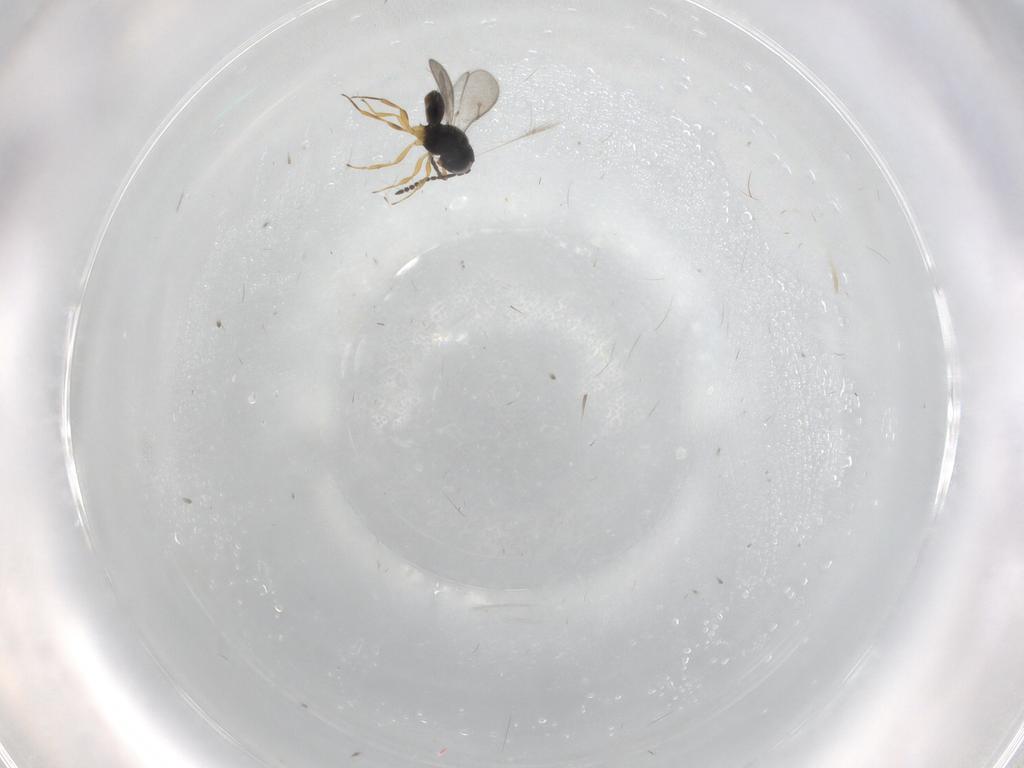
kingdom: Animalia
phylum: Arthropoda
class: Insecta
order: Hymenoptera
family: Scelionidae
